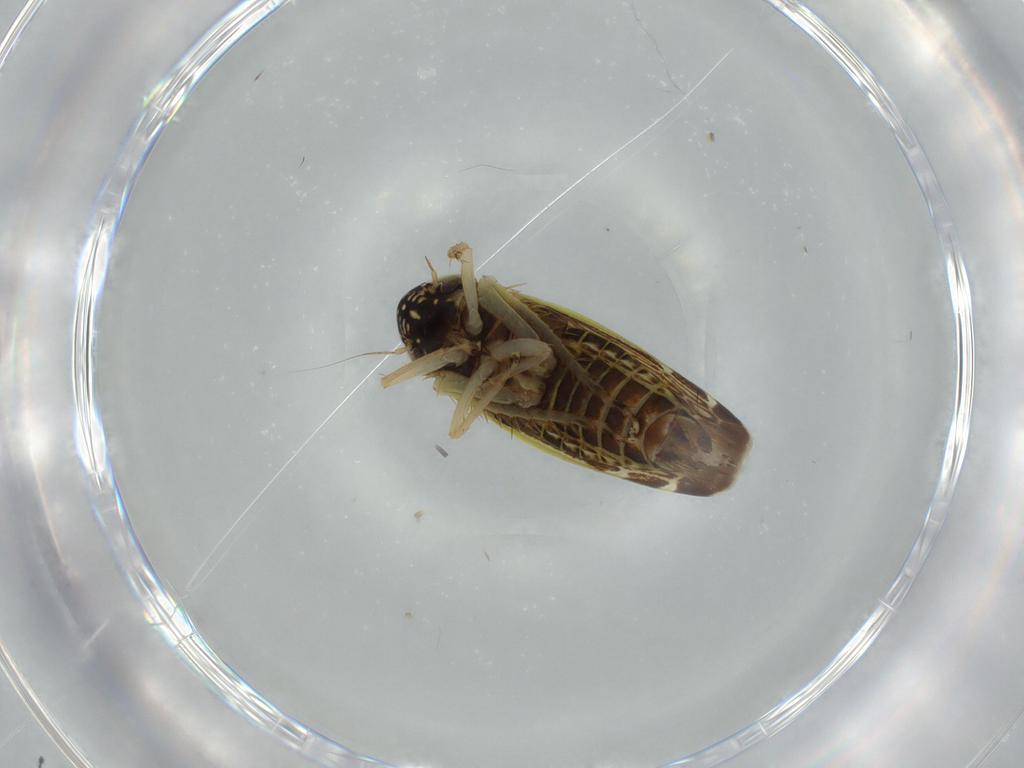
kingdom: Animalia
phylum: Arthropoda
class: Insecta
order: Hemiptera
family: Cicadellidae
